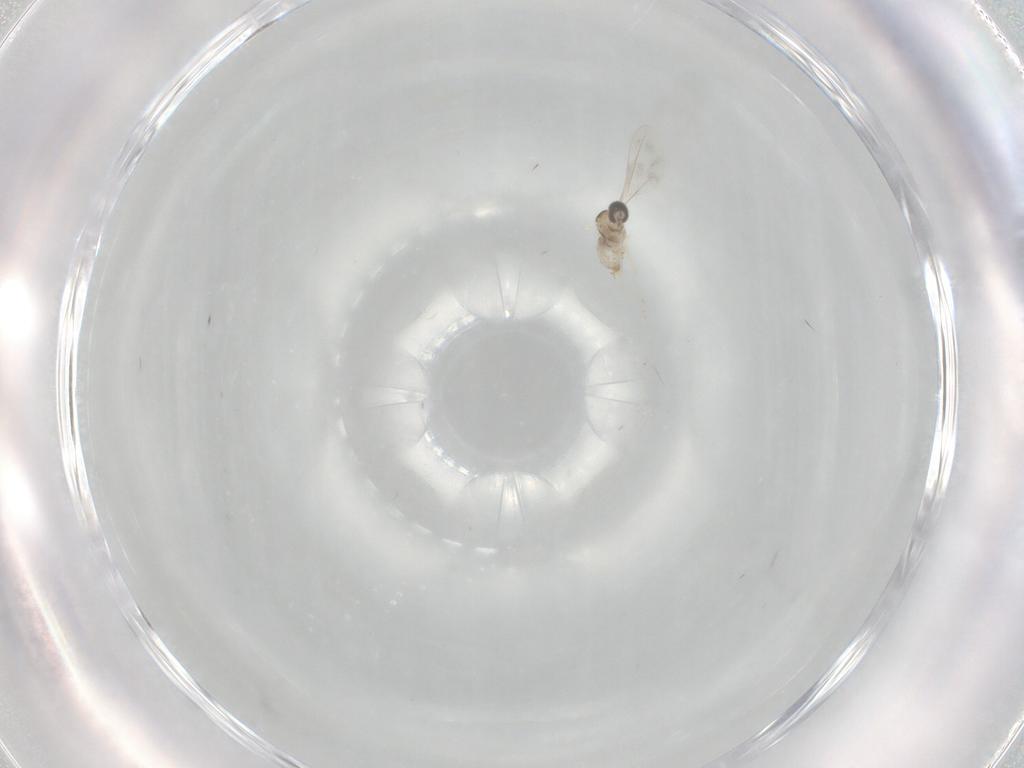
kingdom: Animalia
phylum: Arthropoda
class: Insecta
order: Diptera
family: Cecidomyiidae
